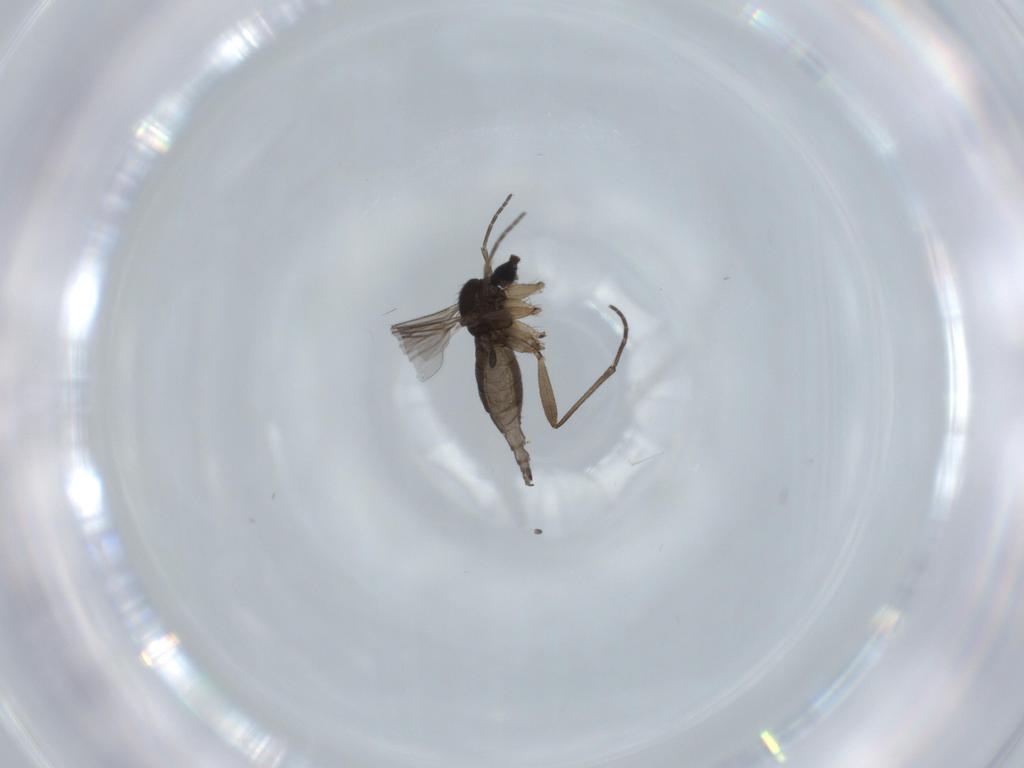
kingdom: Animalia
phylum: Arthropoda
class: Insecta
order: Diptera
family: Sciaridae
